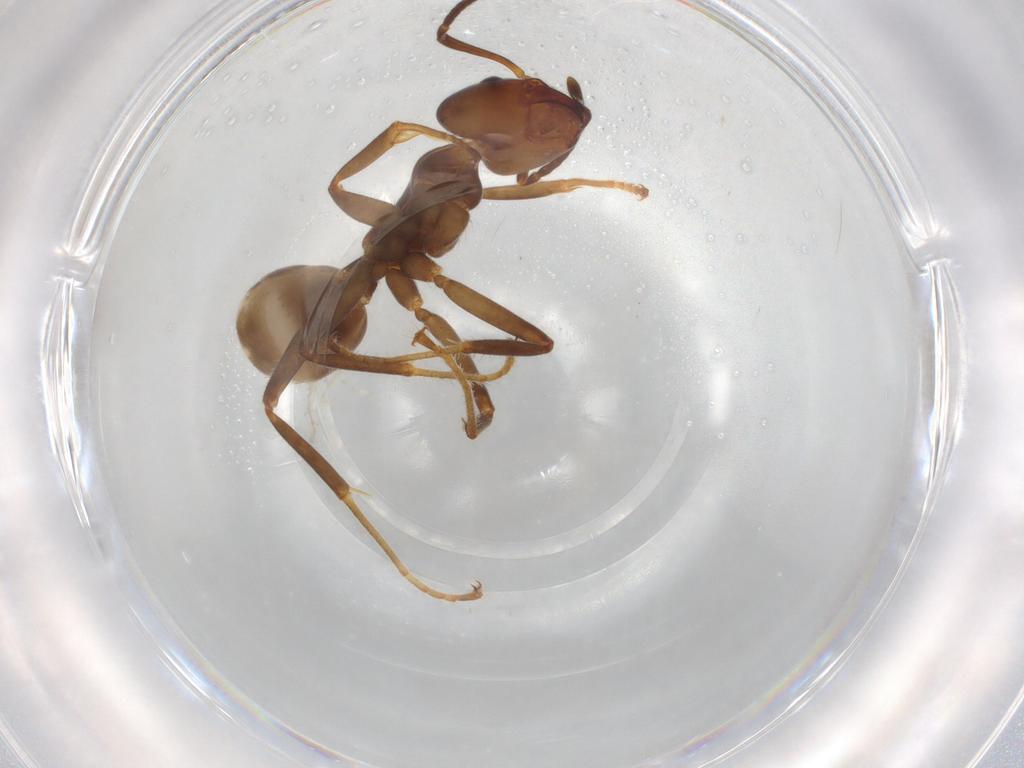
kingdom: Animalia
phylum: Arthropoda
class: Insecta
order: Hymenoptera
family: Formicidae
